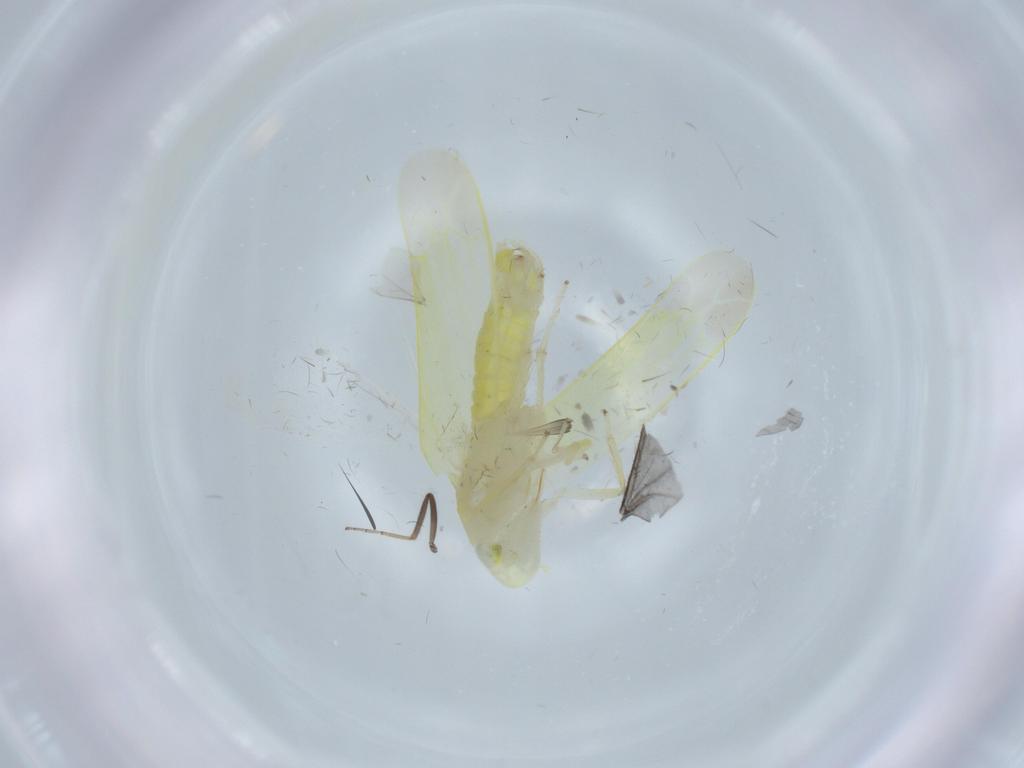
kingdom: Animalia
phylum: Arthropoda
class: Insecta
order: Hemiptera
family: Cicadellidae
